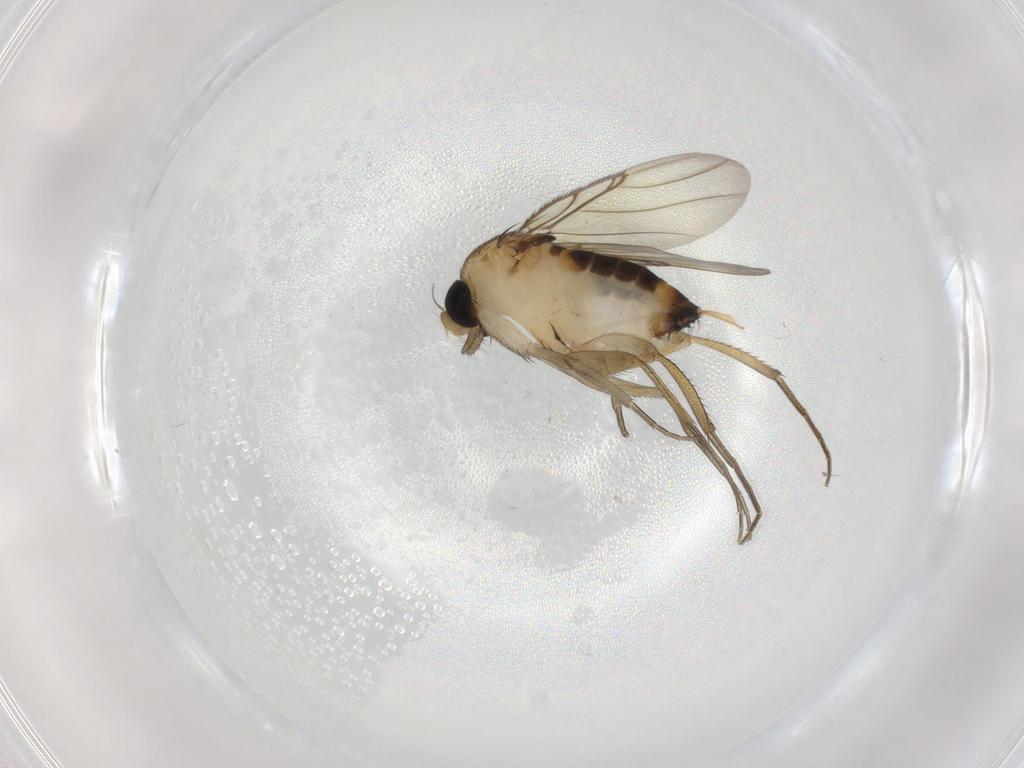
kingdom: Animalia
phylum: Arthropoda
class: Insecta
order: Diptera
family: Phoridae
